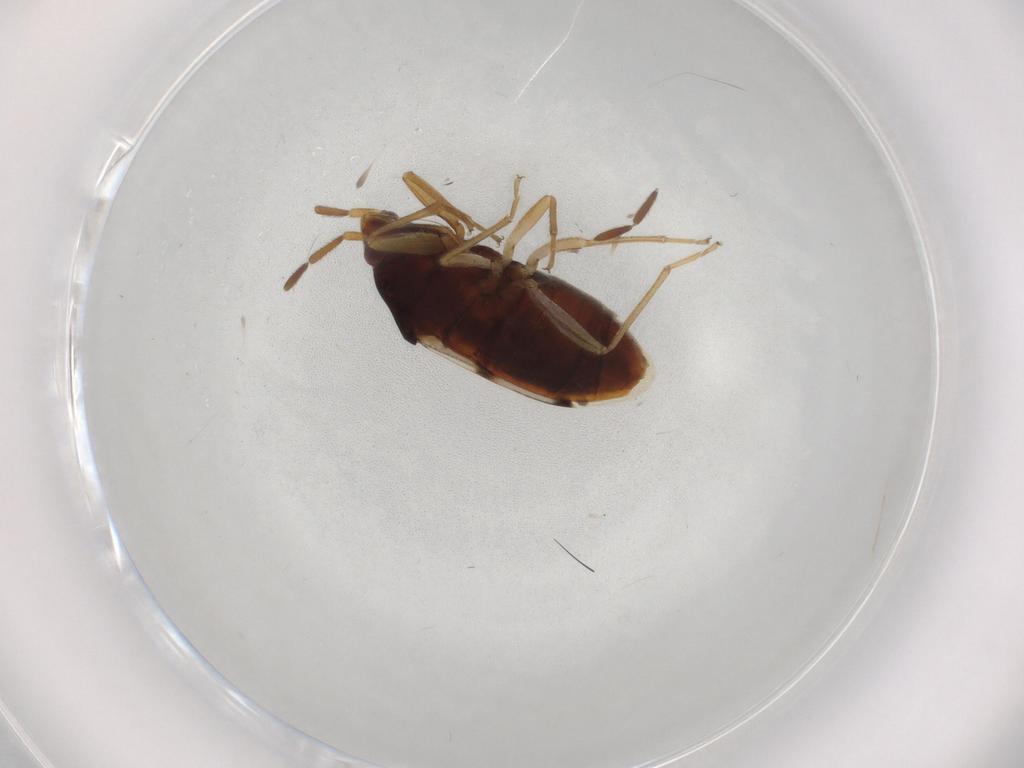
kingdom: Animalia
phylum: Arthropoda
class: Insecta
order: Hemiptera
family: Rhyparochromidae
